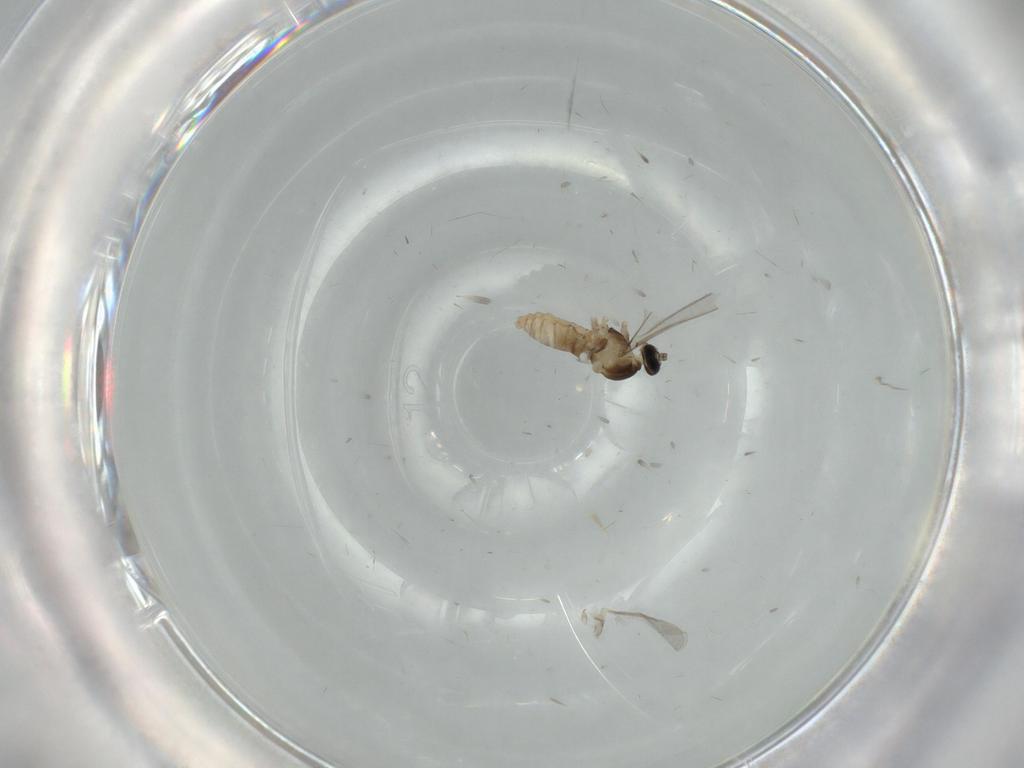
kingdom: Animalia
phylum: Arthropoda
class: Insecta
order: Diptera
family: Cecidomyiidae
